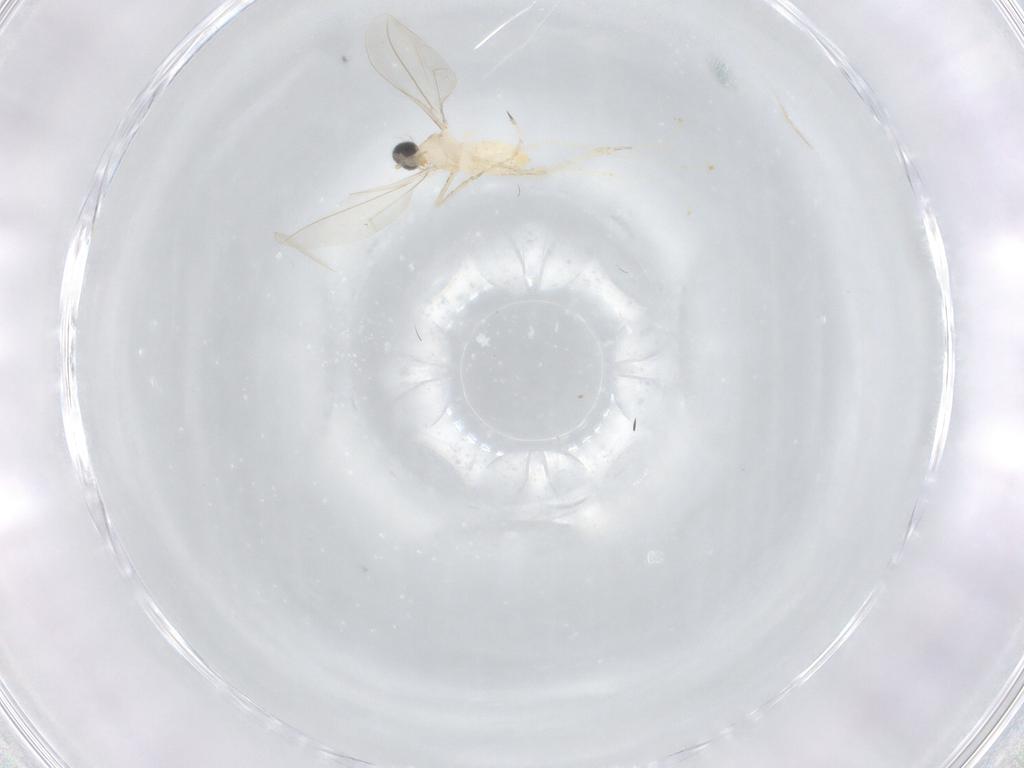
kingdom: Animalia
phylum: Arthropoda
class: Insecta
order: Diptera
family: Cecidomyiidae
